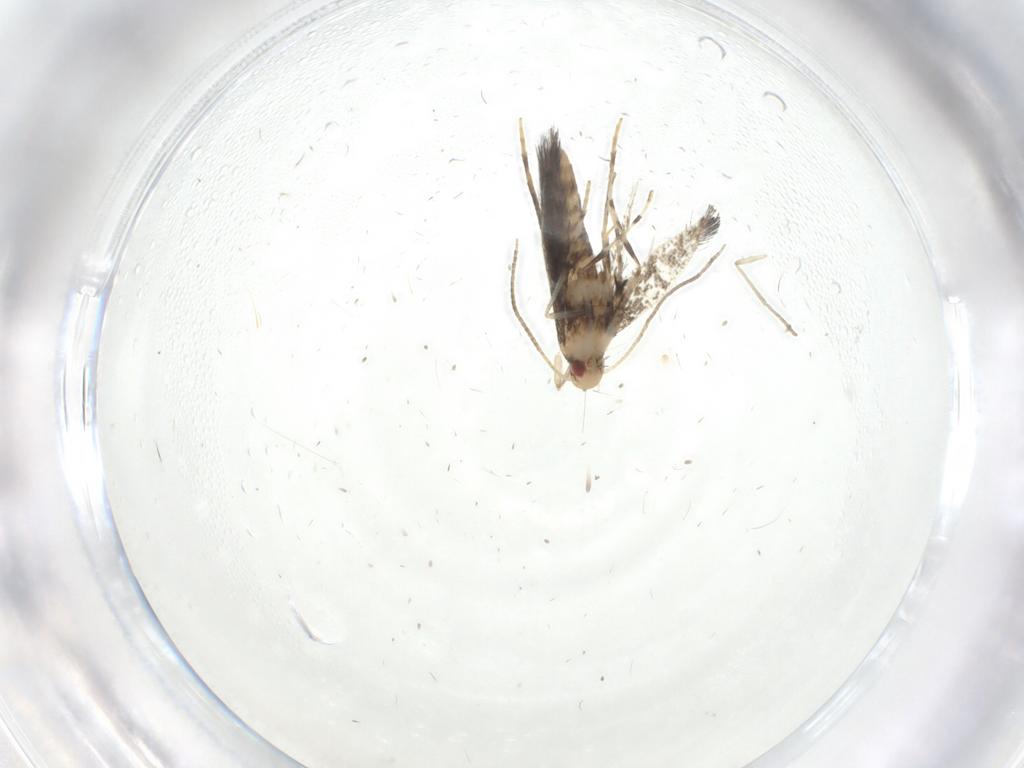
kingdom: Animalia
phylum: Arthropoda
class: Insecta
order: Lepidoptera
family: Gracillariidae
